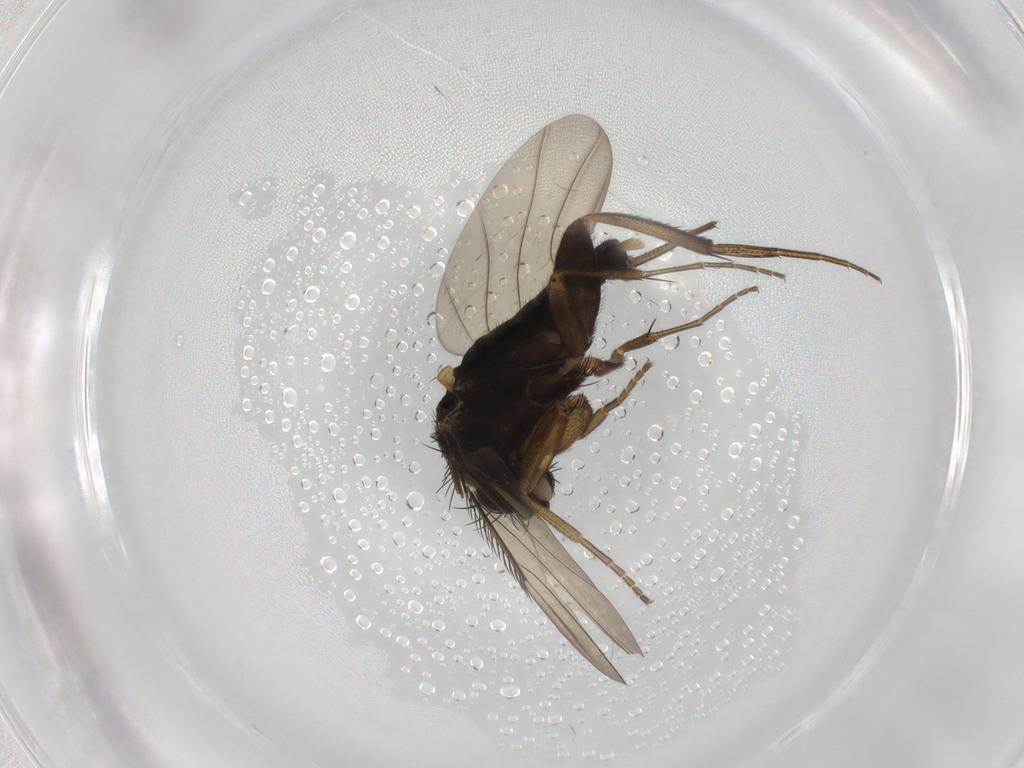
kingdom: Animalia
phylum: Arthropoda
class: Insecta
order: Diptera
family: Phoridae
